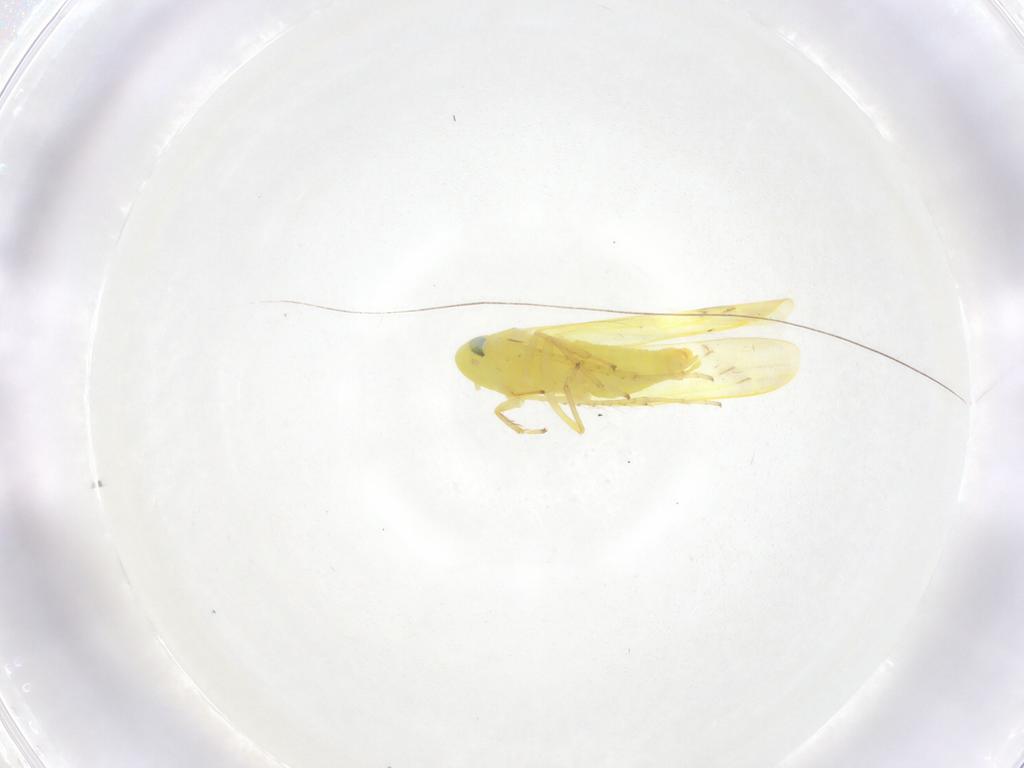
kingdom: Animalia
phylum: Arthropoda
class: Insecta
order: Hemiptera
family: Cicadellidae
